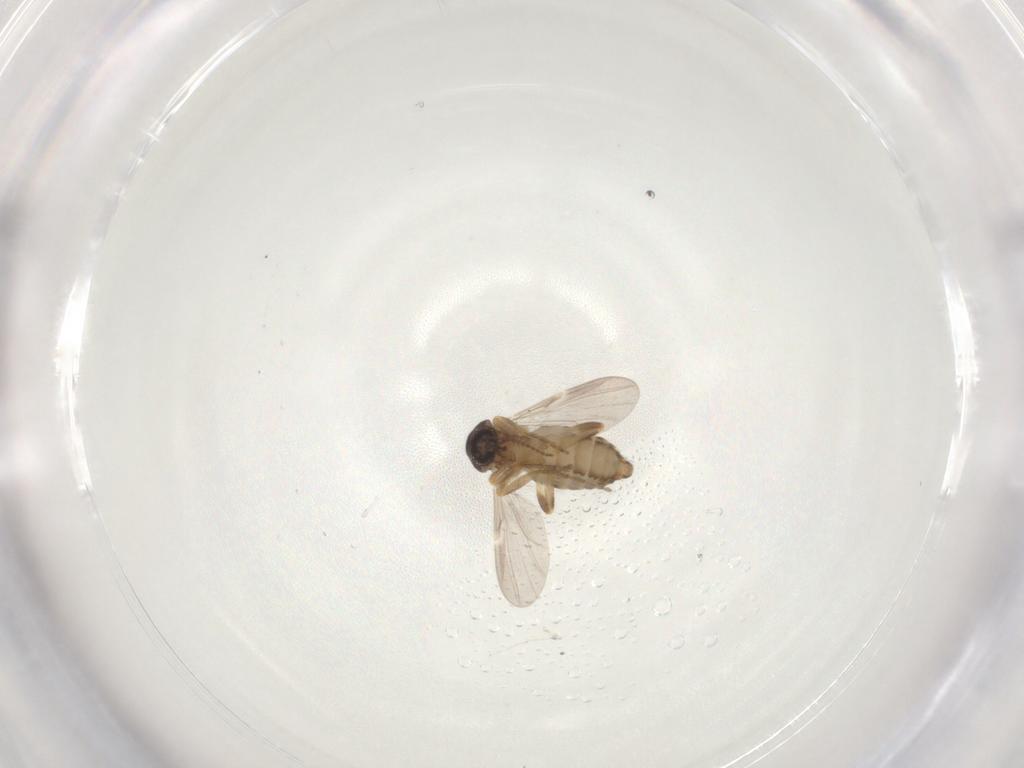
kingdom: Animalia
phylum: Arthropoda
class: Insecta
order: Diptera
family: Ceratopogonidae
